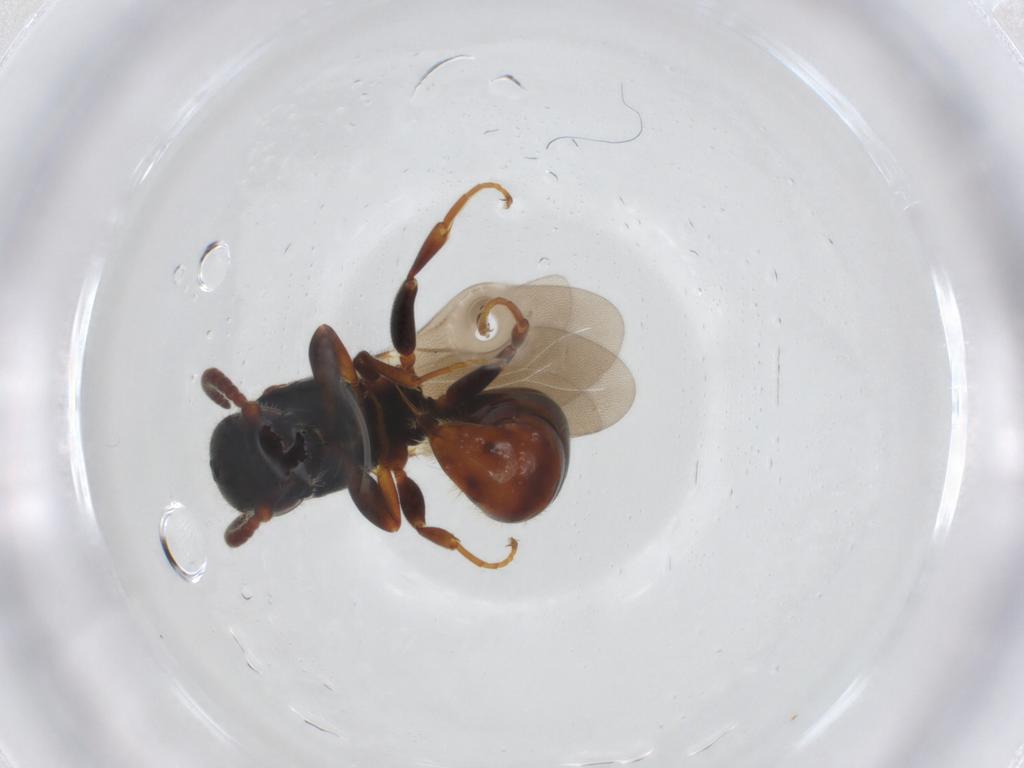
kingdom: Animalia
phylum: Arthropoda
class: Insecta
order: Hymenoptera
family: Bethylidae
